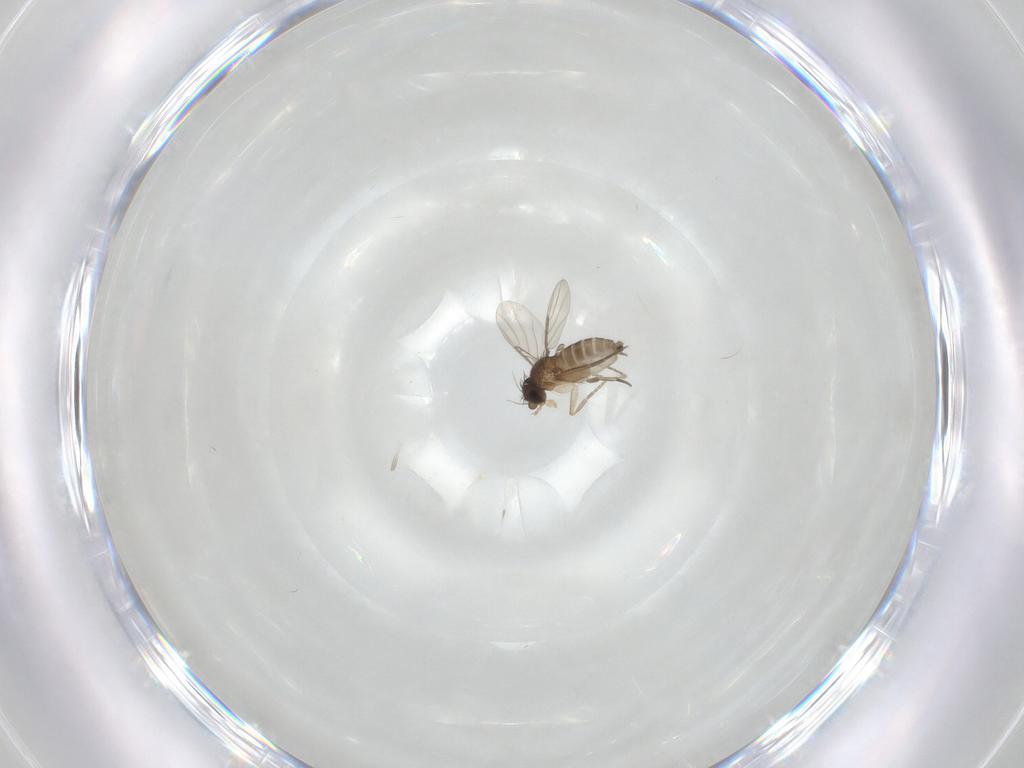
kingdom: Animalia
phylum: Arthropoda
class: Insecta
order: Diptera
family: Phoridae
